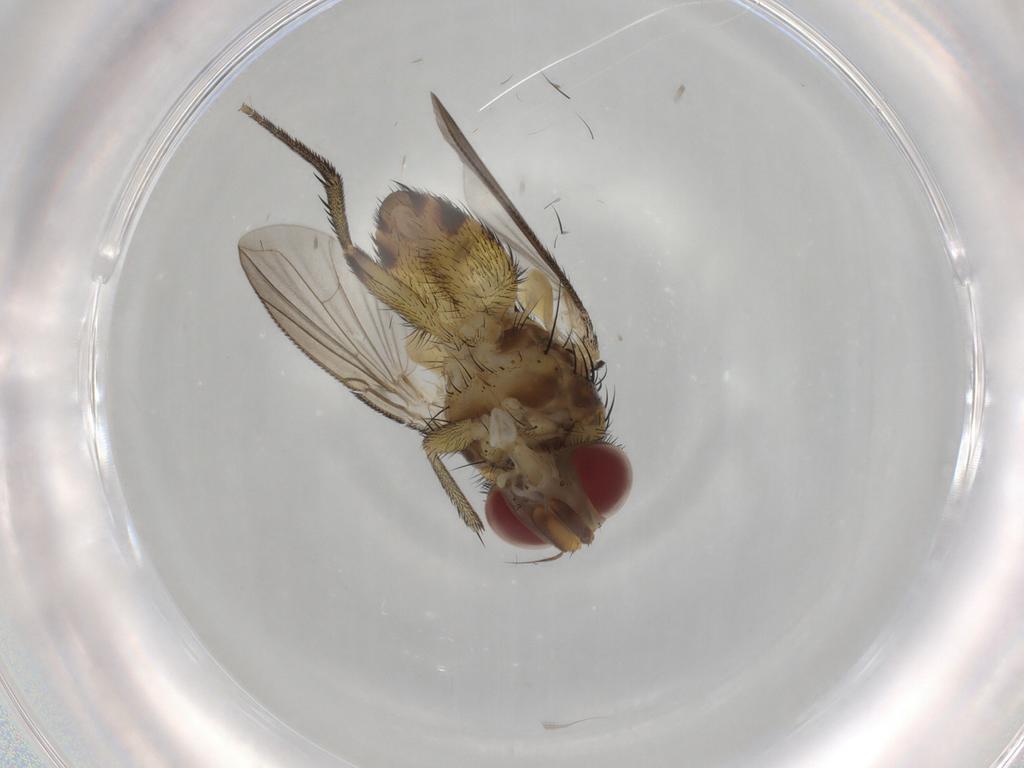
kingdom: Animalia
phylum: Arthropoda
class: Insecta
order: Diptera
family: Tachinidae
